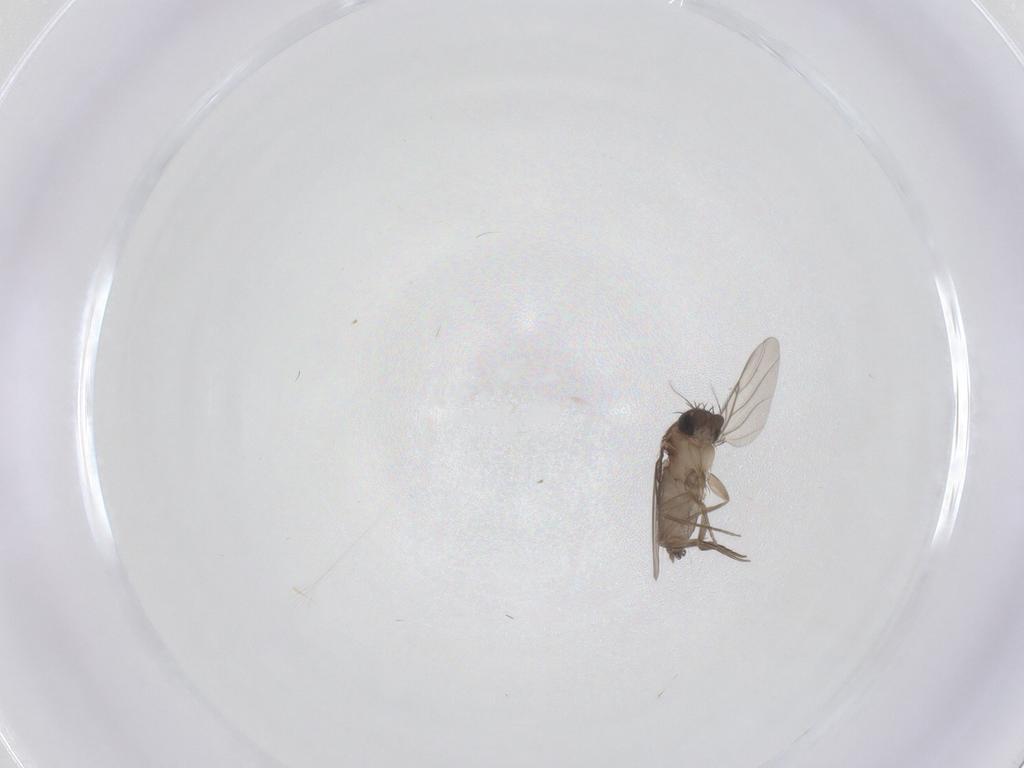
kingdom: Animalia
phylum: Arthropoda
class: Insecta
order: Diptera
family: Phoridae
